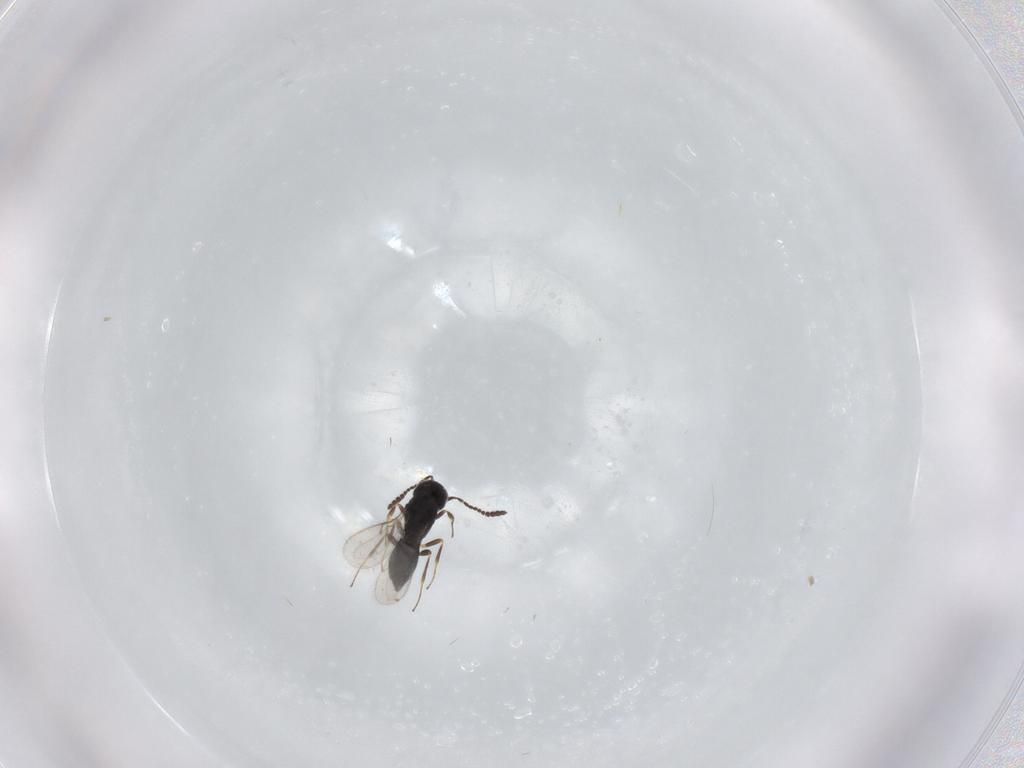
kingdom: Animalia
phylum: Arthropoda
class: Insecta
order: Hymenoptera
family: Scelionidae
